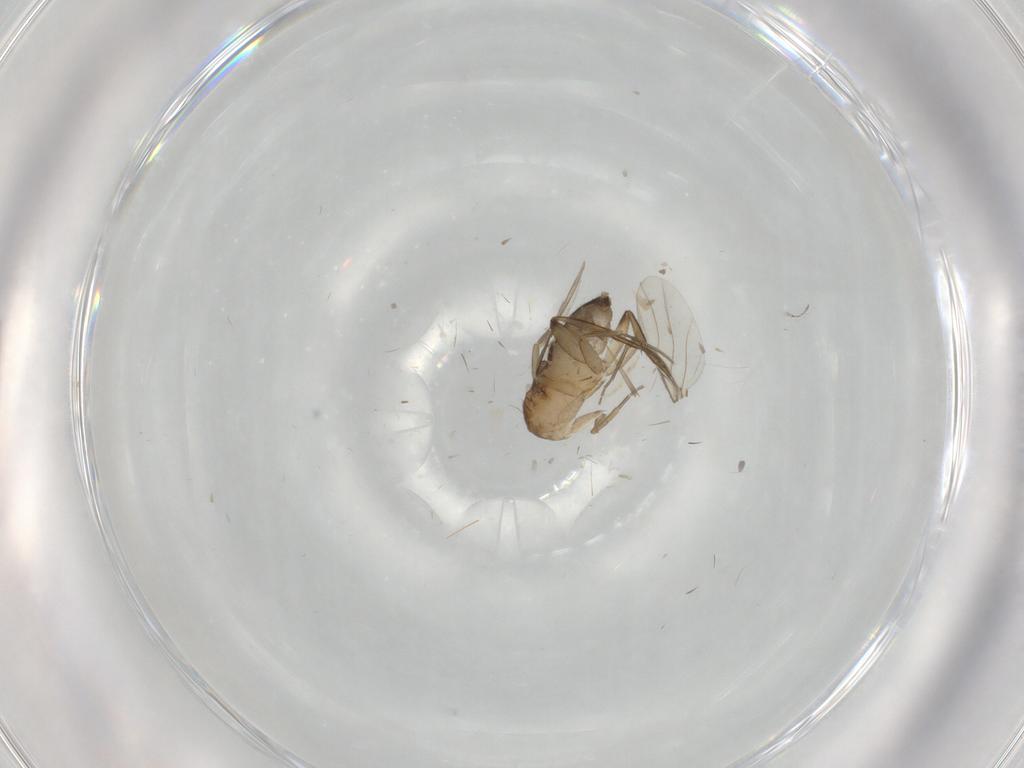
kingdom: Animalia
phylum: Arthropoda
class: Insecta
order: Diptera
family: Phoridae
